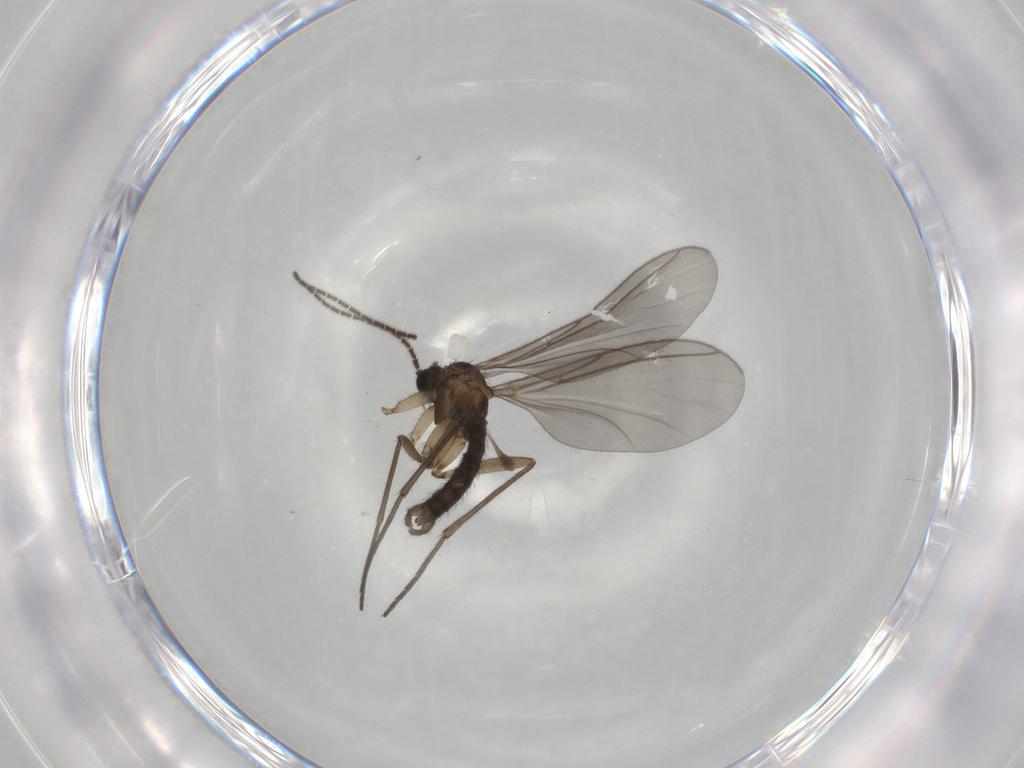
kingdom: Animalia
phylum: Arthropoda
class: Insecta
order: Diptera
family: Sciaridae
